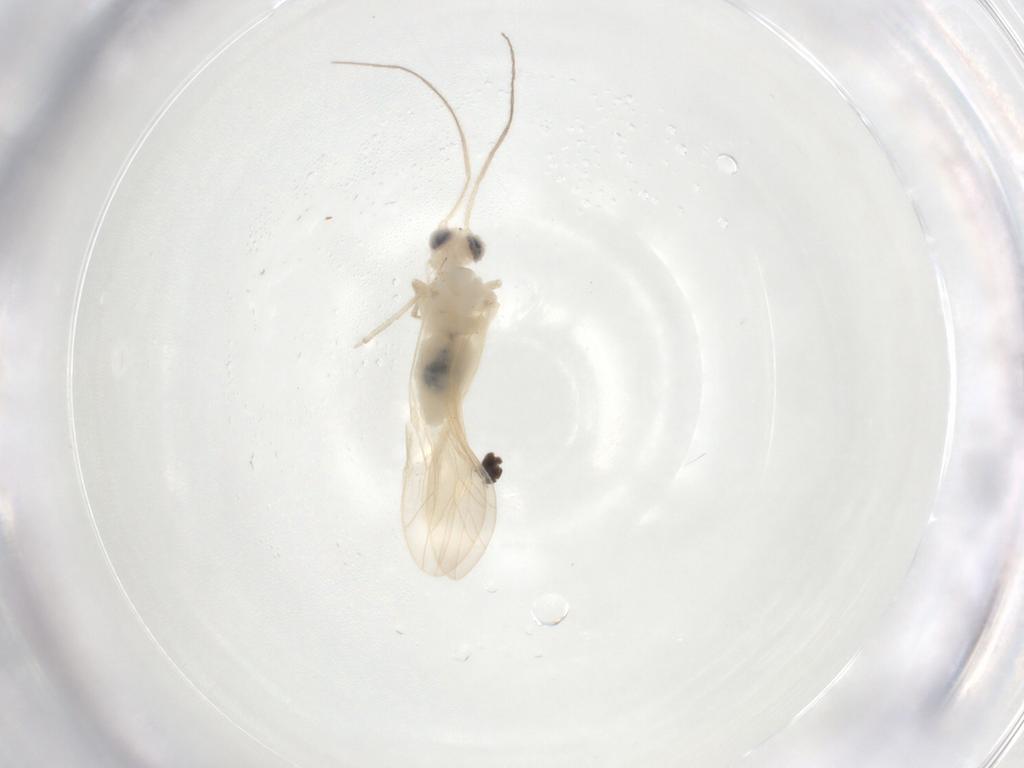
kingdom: Animalia
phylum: Arthropoda
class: Insecta
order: Psocodea
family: Caeciliusidae
